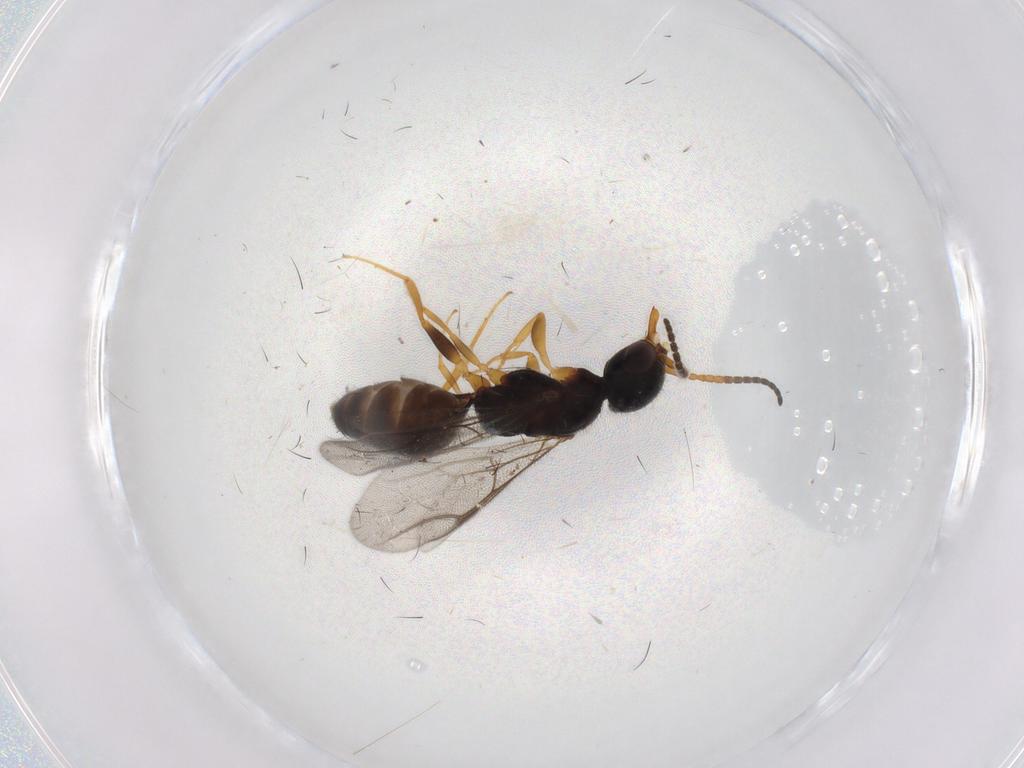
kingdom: Animalia
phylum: Arthropoda
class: Insecta
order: Hymenoptera
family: Bethylidae
